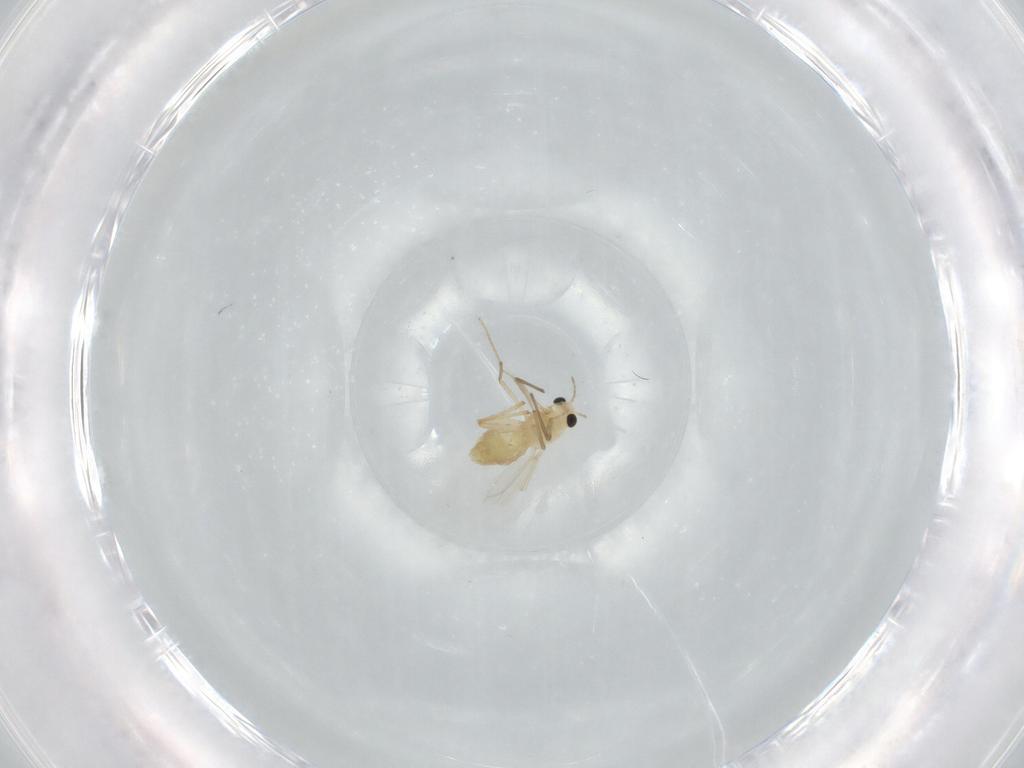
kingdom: Animalia
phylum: Arthropoda
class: Insecta
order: Diptera
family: Chironomidae
